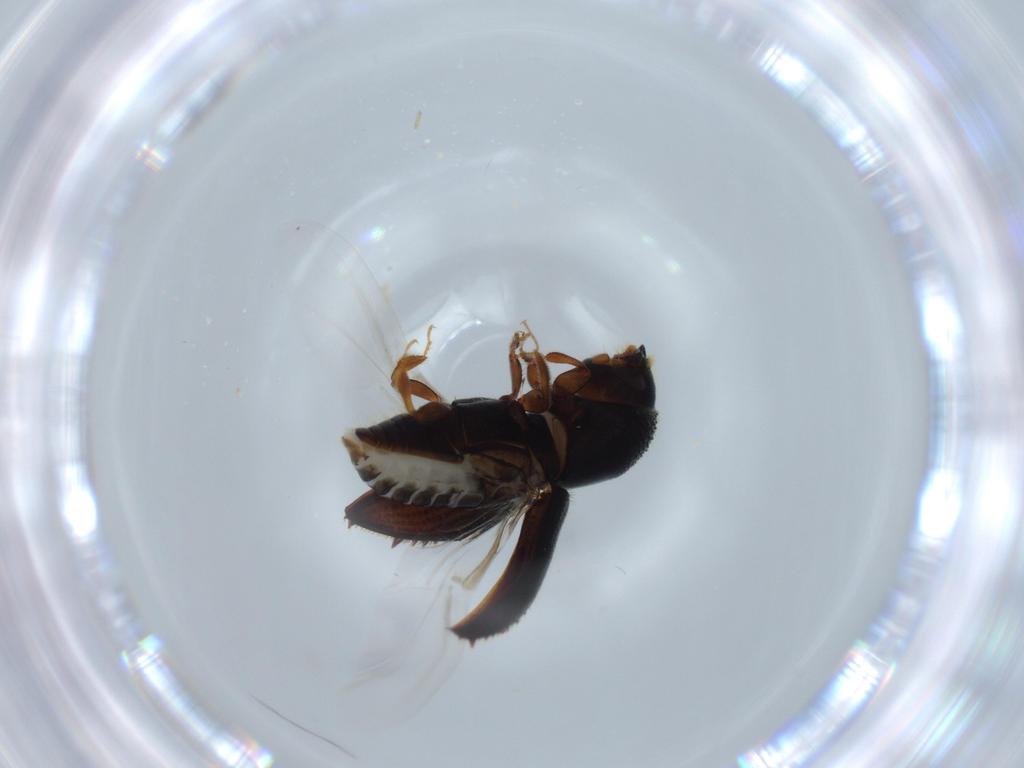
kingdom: Animalia
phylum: Arthropoda
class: Insecta
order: Coleoptera
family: Curculionidae
